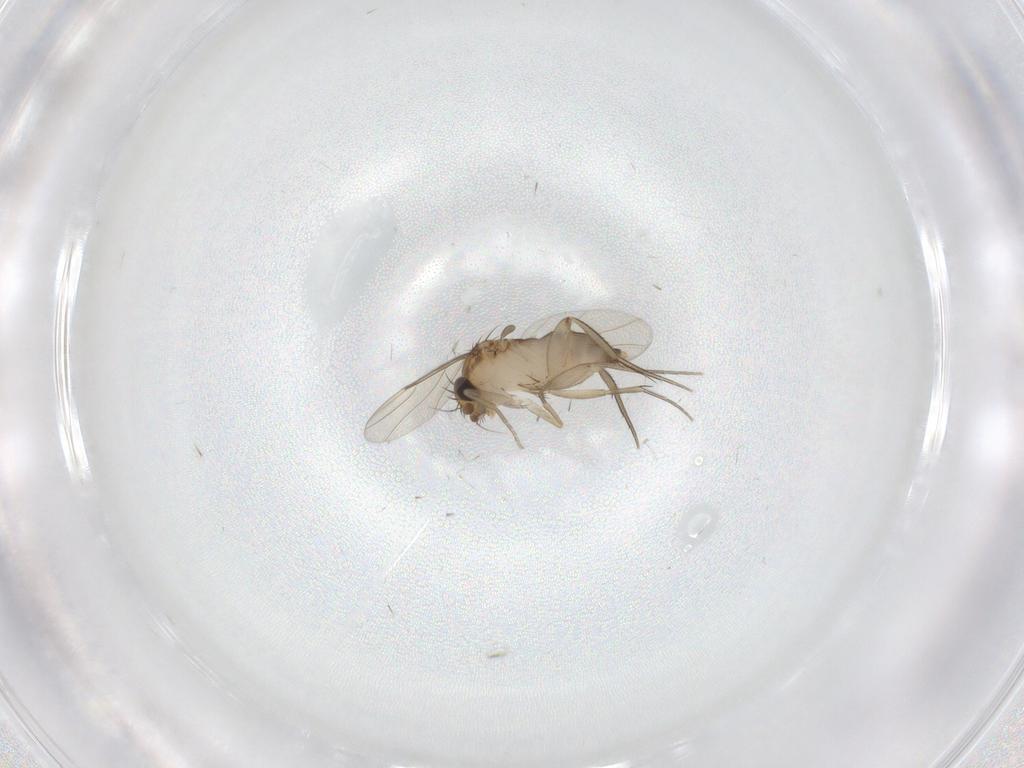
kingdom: Animalia
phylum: Arthropoda
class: Insecta
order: Diptera
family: Phoridae
